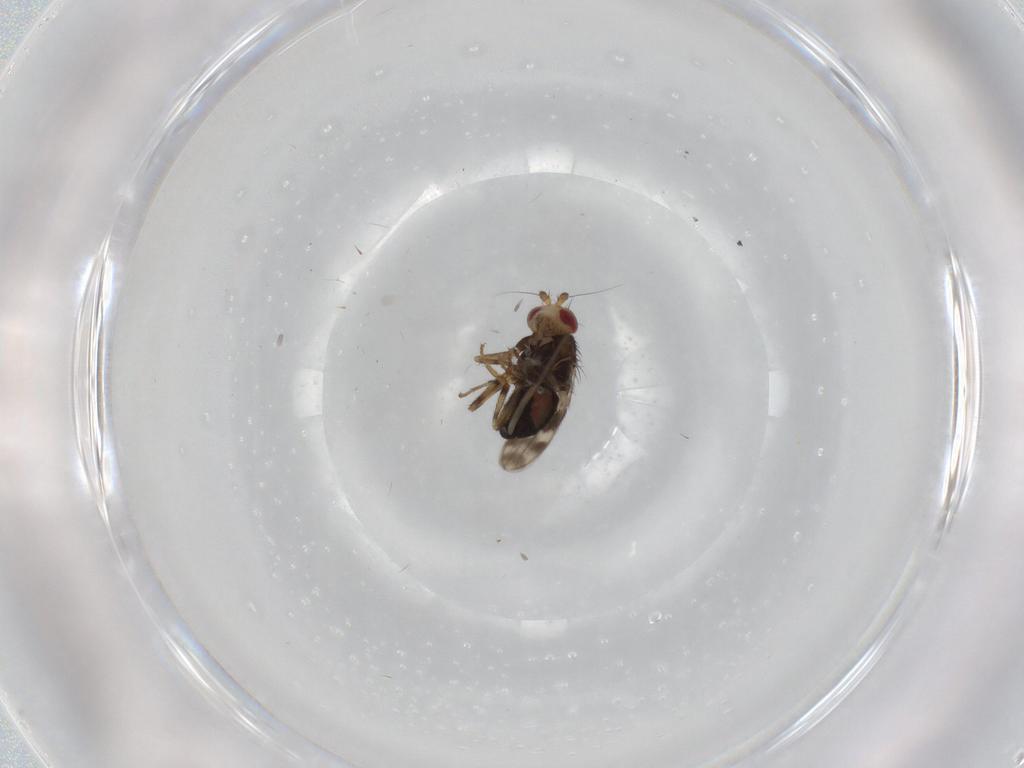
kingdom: Animalia
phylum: Arthropoda
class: Insecta
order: Diptera
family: Sphaeroceridae
